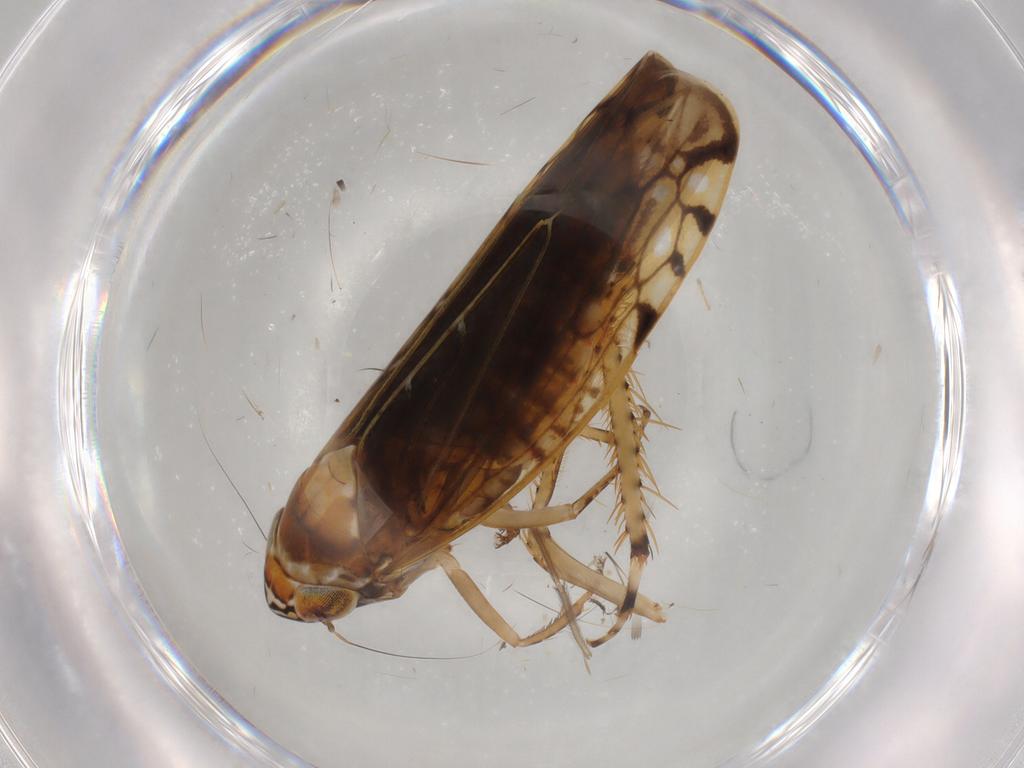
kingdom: Animalia
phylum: Arthropoda
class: Insecta
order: Hemiptera
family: Cicadellidae
